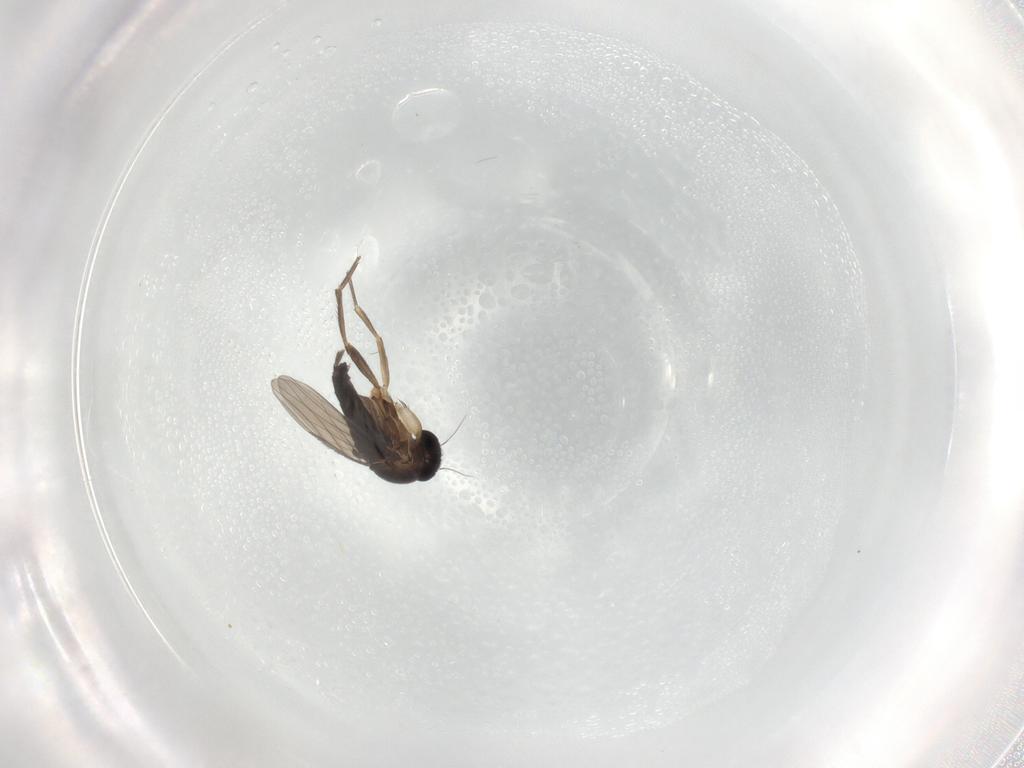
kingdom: Animalia
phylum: Arthropoda
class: Insecta
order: Diptera
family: Phoridae
